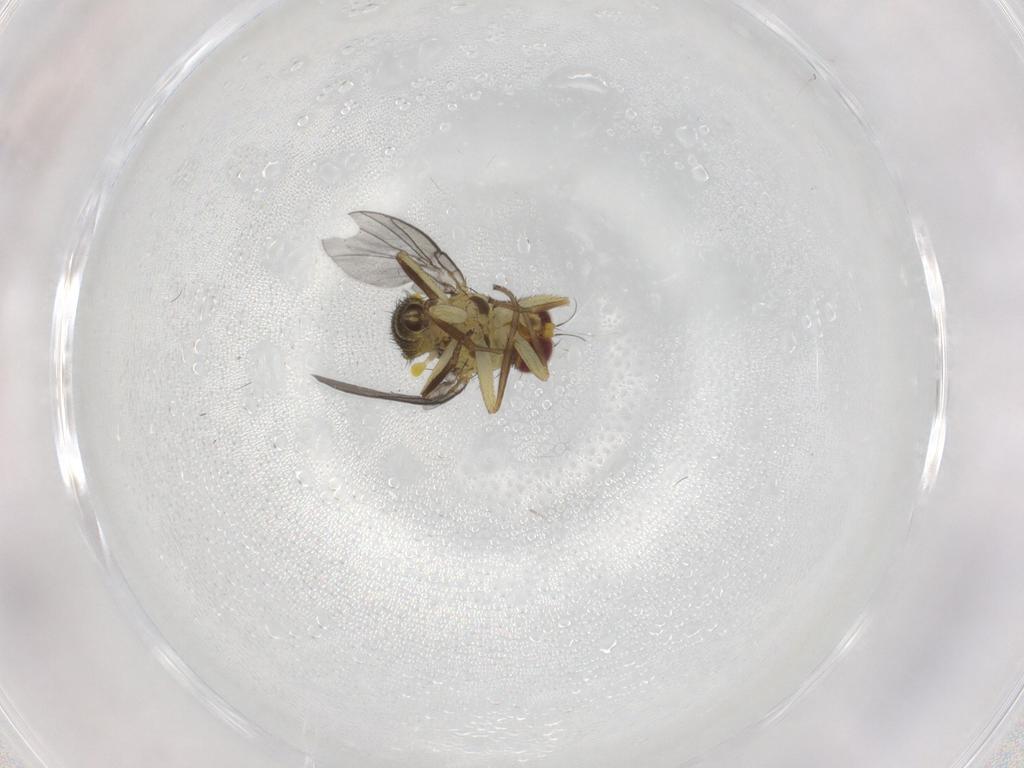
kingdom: Animalia
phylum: Arthropoda
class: Insecta
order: Diptera
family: Agromyzidae
